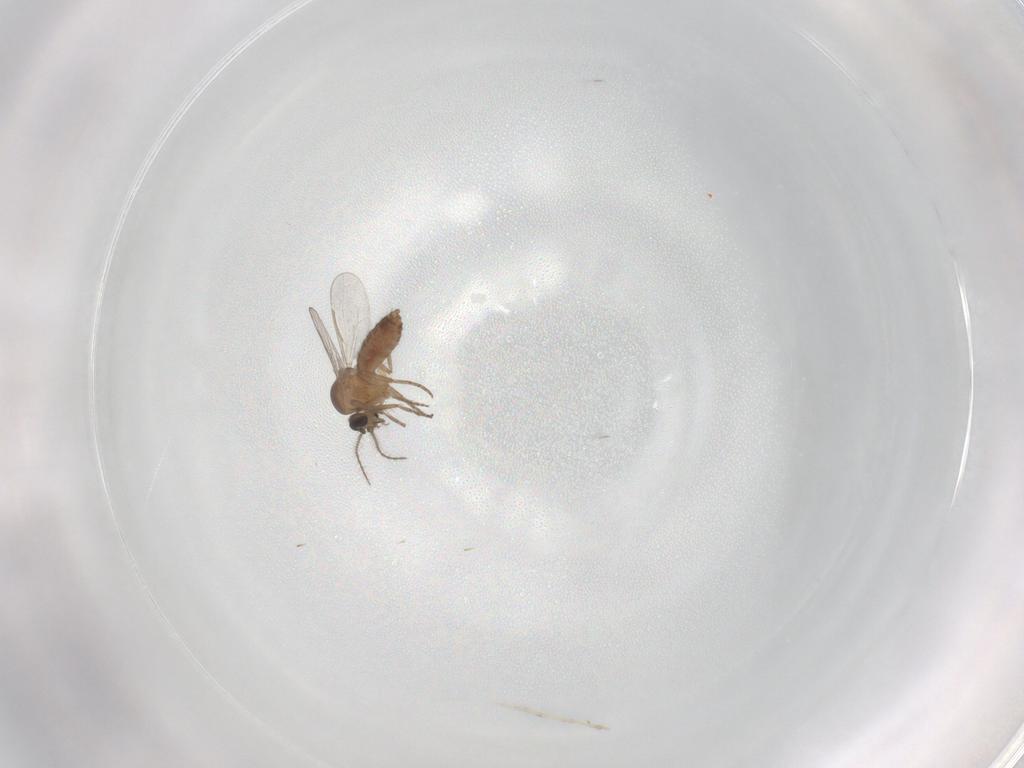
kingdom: Animalia
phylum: Arthropoda
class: Insecta
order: Diptera
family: Dolichopodidae
